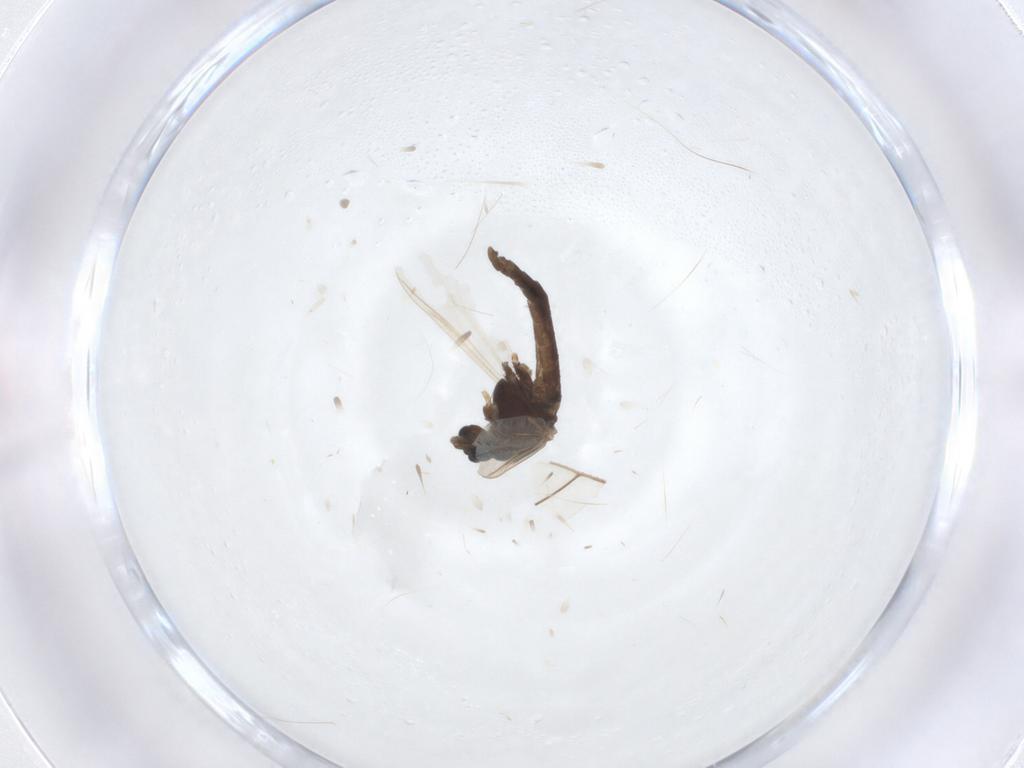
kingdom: Animalia
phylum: Arthropoda
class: Insecta
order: Diptera
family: Chironomidae
